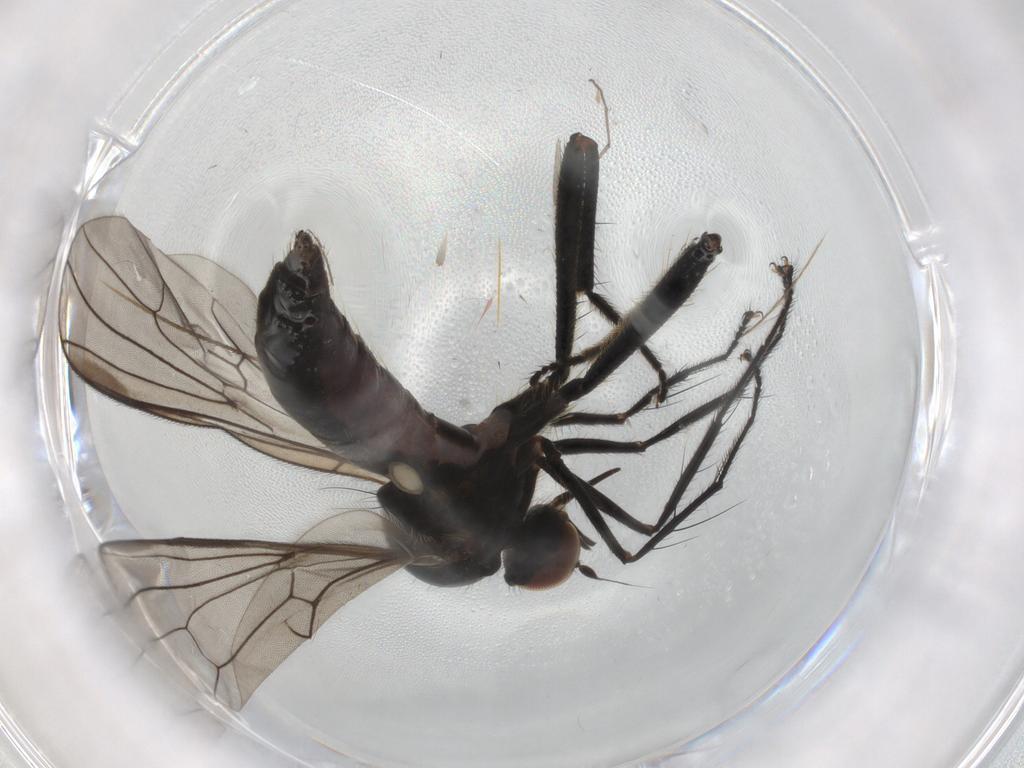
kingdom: Animalia
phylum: Arthropoda
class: Insecta
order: Diptera
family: Hybotidae
